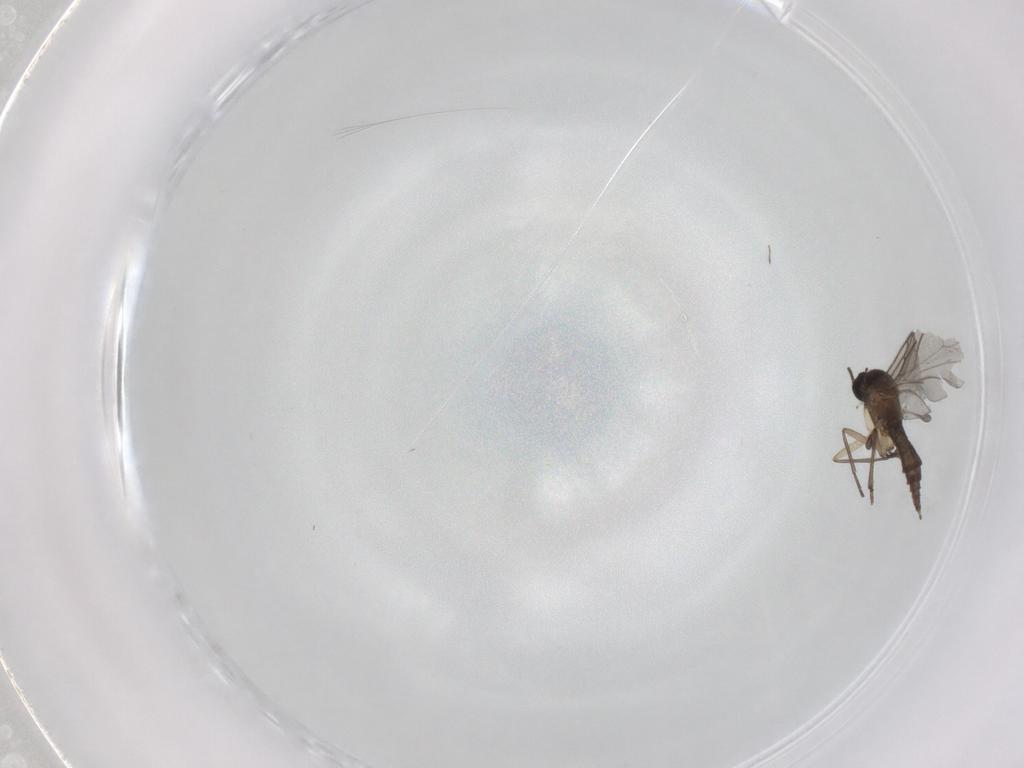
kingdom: Animalia
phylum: Arthropoda
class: Insecta
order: Diptera
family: Sciaridae
